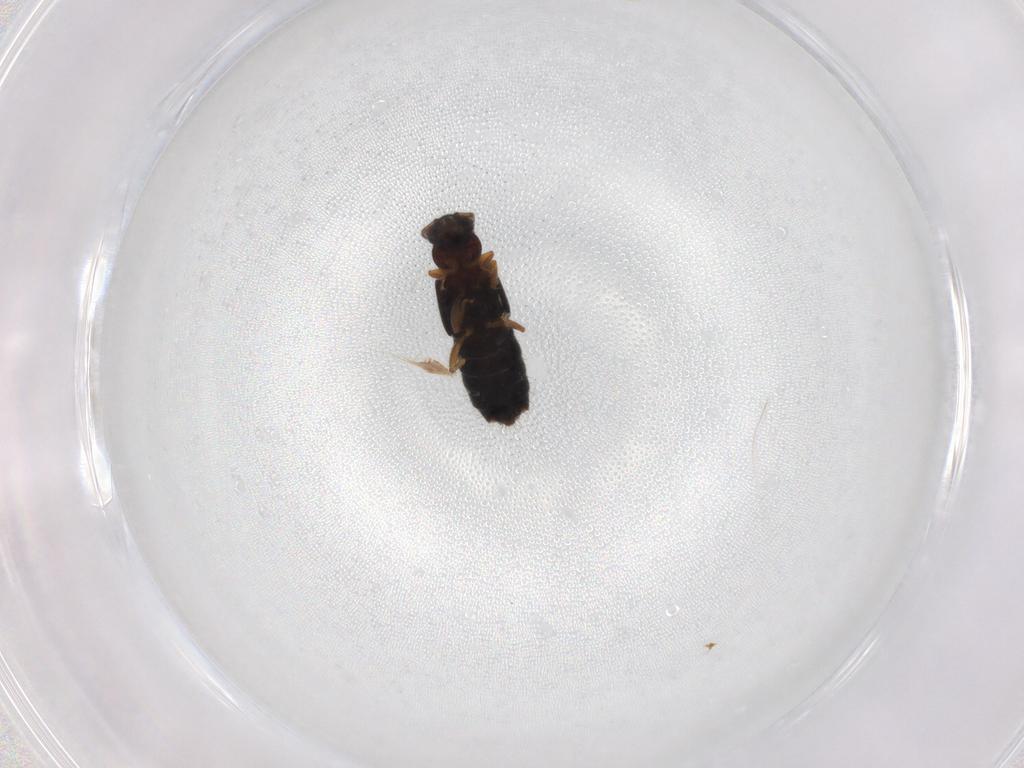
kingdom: Animalia
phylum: Arthropoda
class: Insecta
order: Coleoptera
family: Staphylinidae
